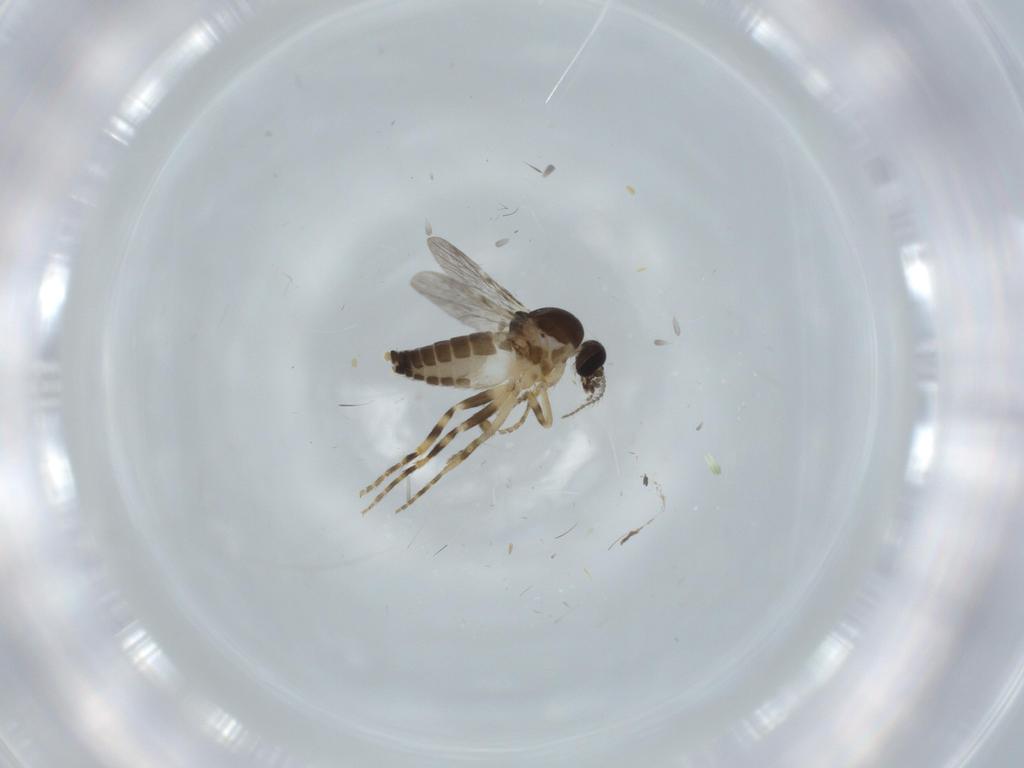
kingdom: Animalia
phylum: Arthropoda
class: Insecta
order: Diptera
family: Ceratopogonidae
